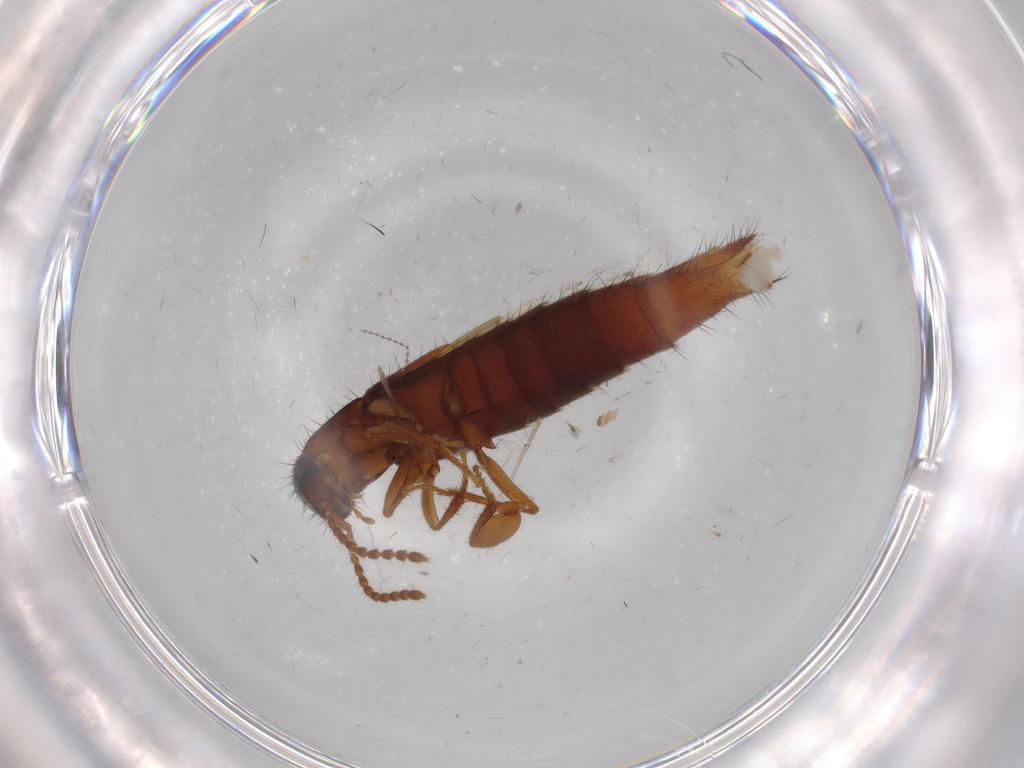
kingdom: Animalia
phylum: Arthropoda
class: Insecta
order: Coleoptera
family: Staphylinidae
